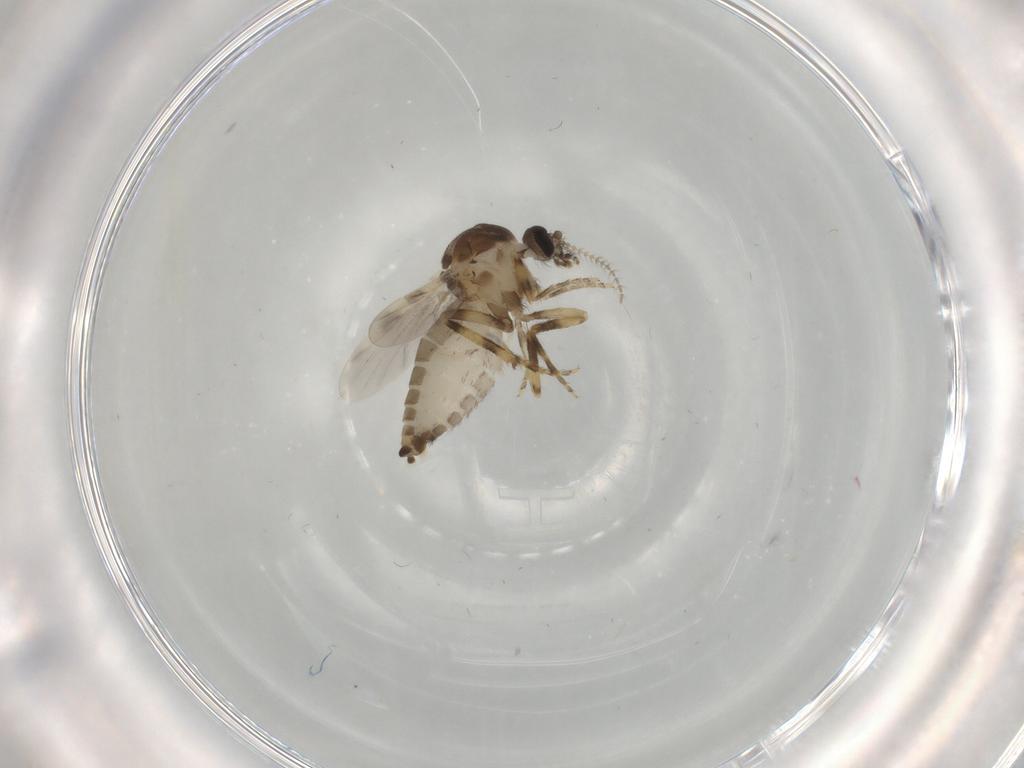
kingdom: Animalia
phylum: Arthropoda
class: Insecta
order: Diptera
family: Ceratopogonidae
